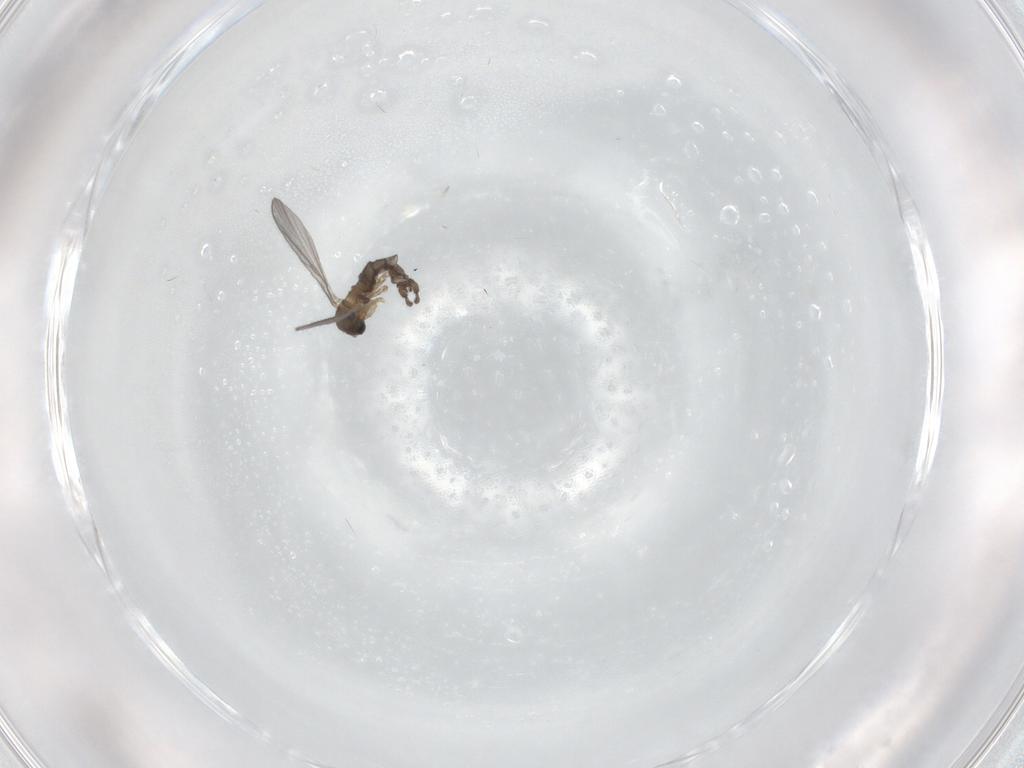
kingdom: Animalia
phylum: Arthropoda
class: Insecta
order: Diptera
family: Sciaridae
